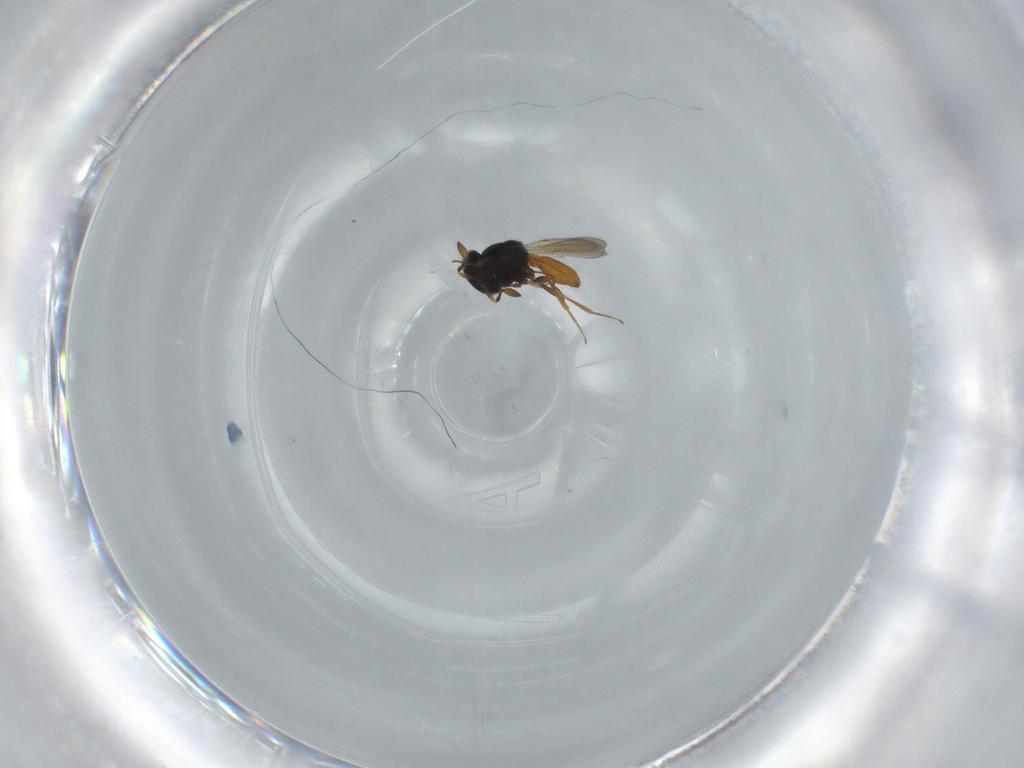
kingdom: Animalia
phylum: Arthropoda
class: Insecta
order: Hymenoptera
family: Scelionidae
